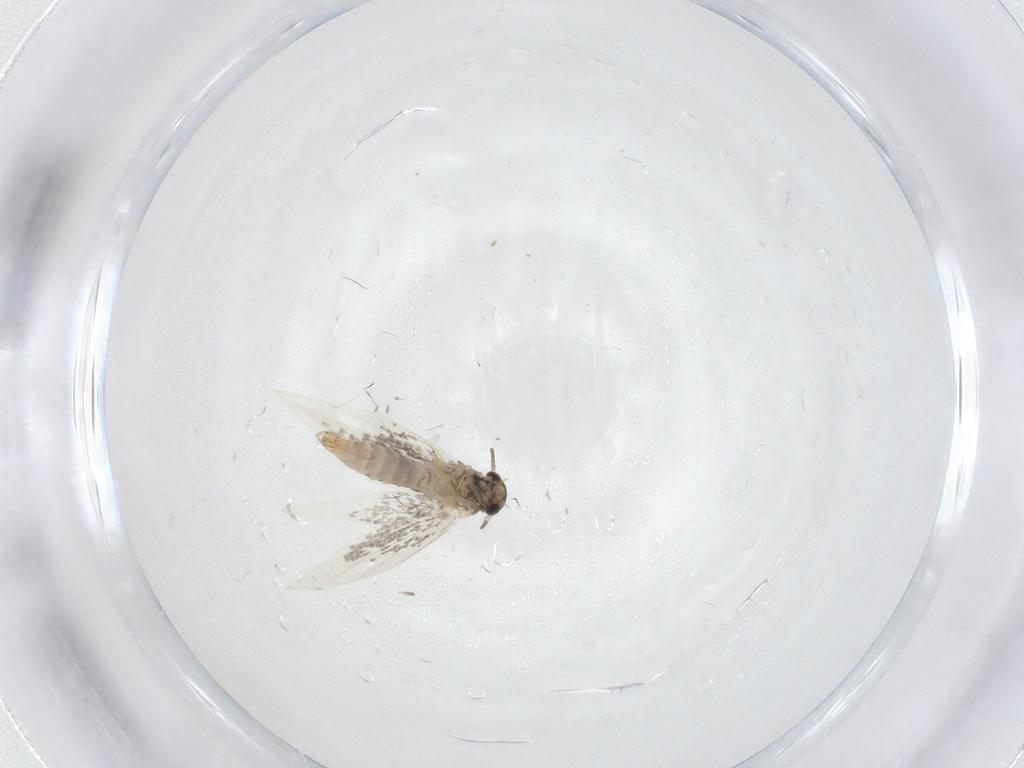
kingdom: Animalia
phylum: Arthropoda
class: Insecta
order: Lepidoptera
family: Heliozelidae
